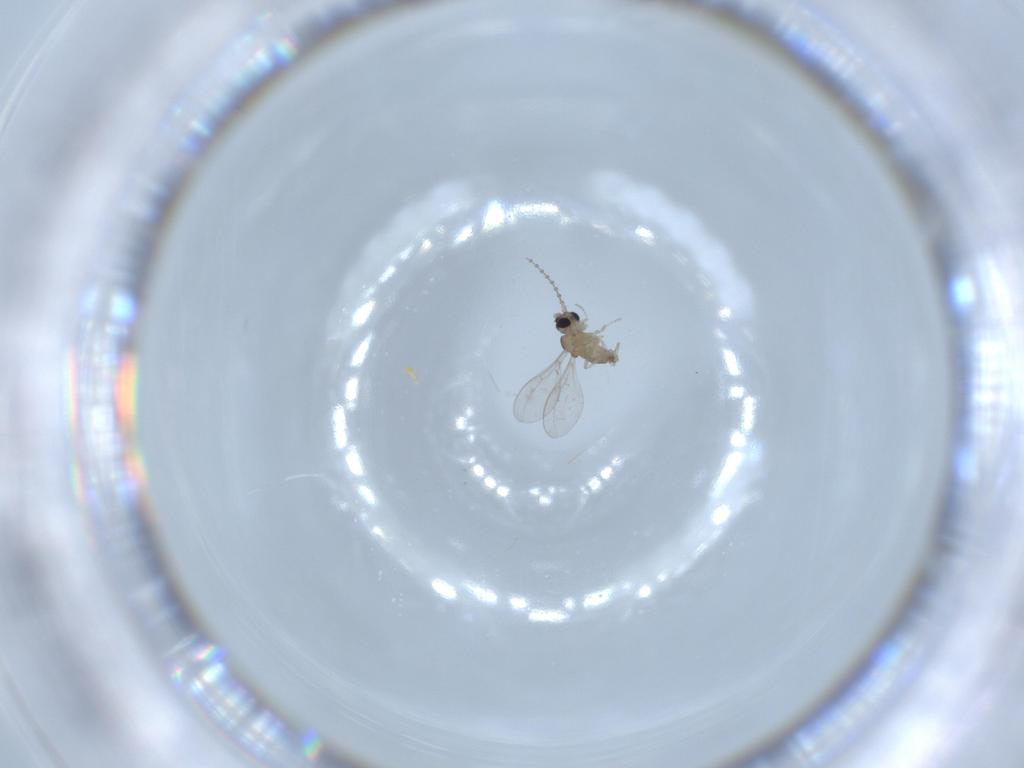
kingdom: Animalia
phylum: Arthropoda
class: Insecta
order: Diptera
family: Cecidomyiidae
